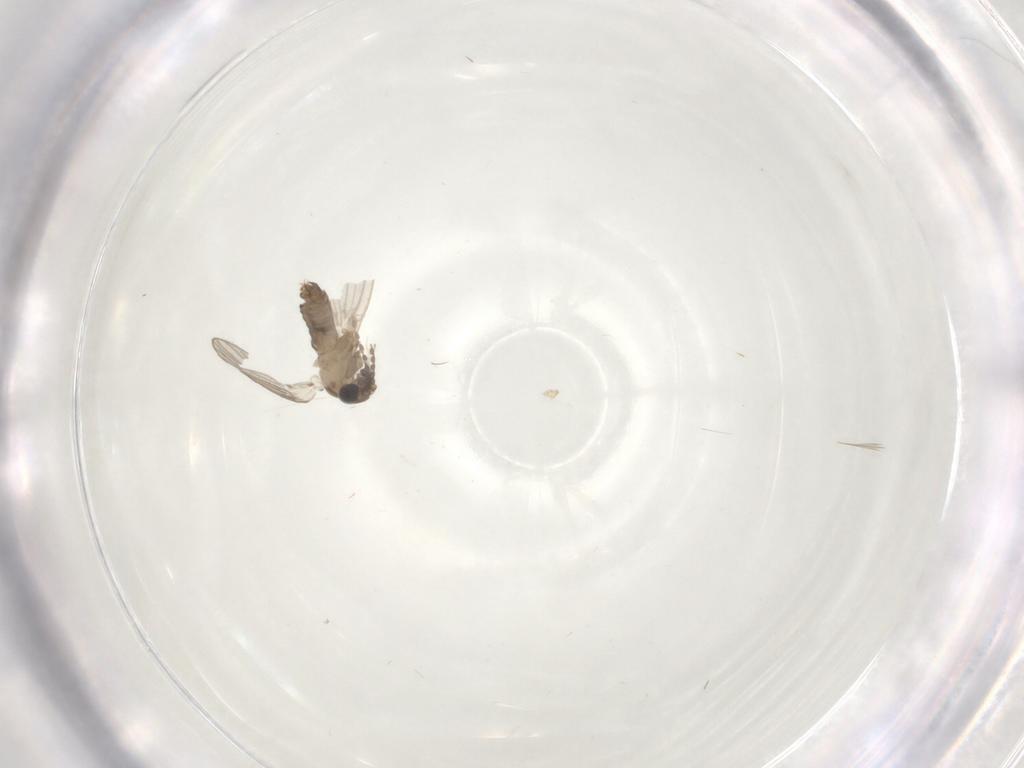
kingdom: Animalia
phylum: Arthropoda
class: Insecta
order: Diptera
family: Psychodidae
